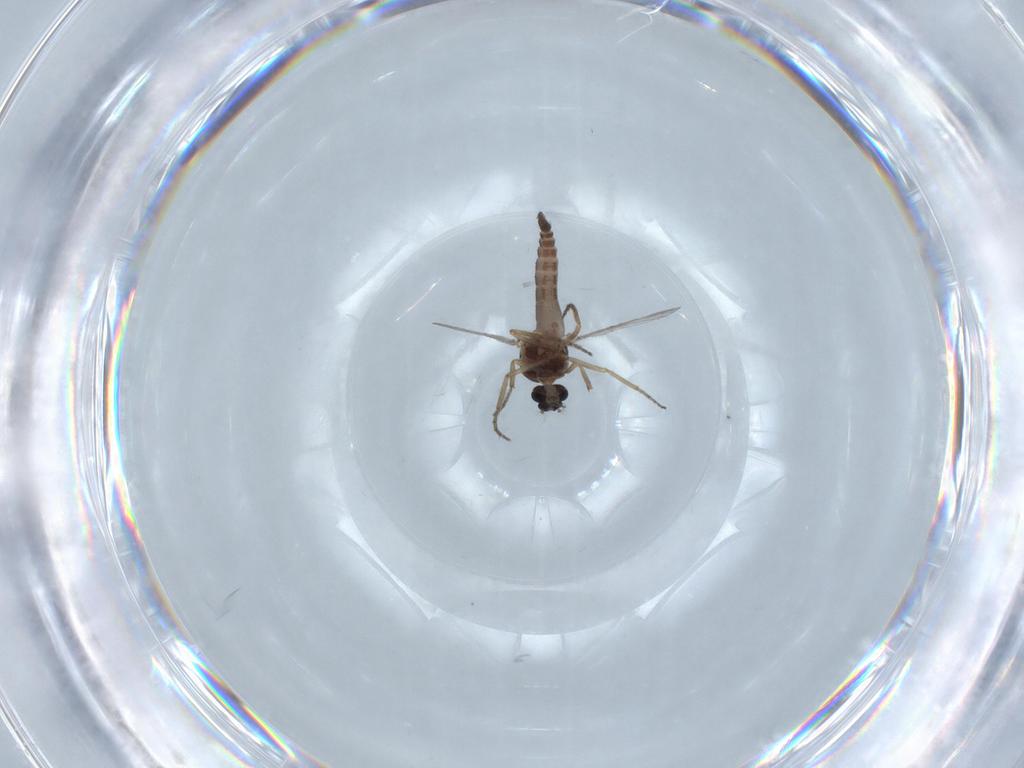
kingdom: Animalia
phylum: Arthropoda
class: Insecta
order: Diptera
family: Ceratopogonidae
